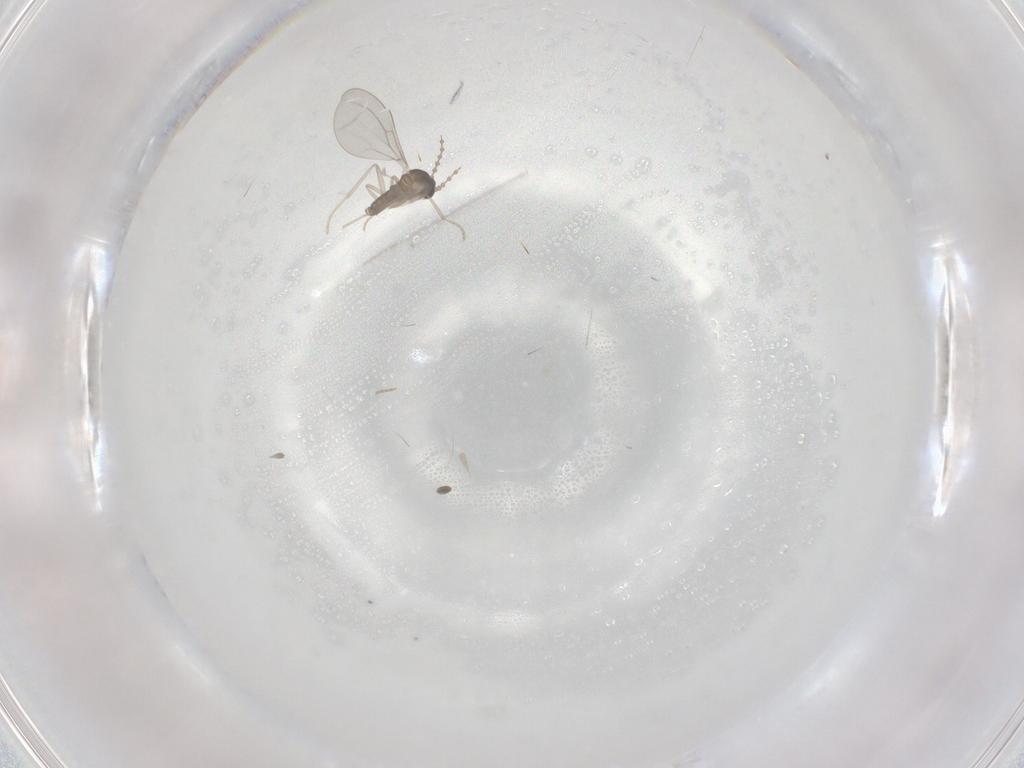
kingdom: Animalia
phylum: Arthropoda
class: Insecta
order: Diptera
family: Cecidomyiidae
